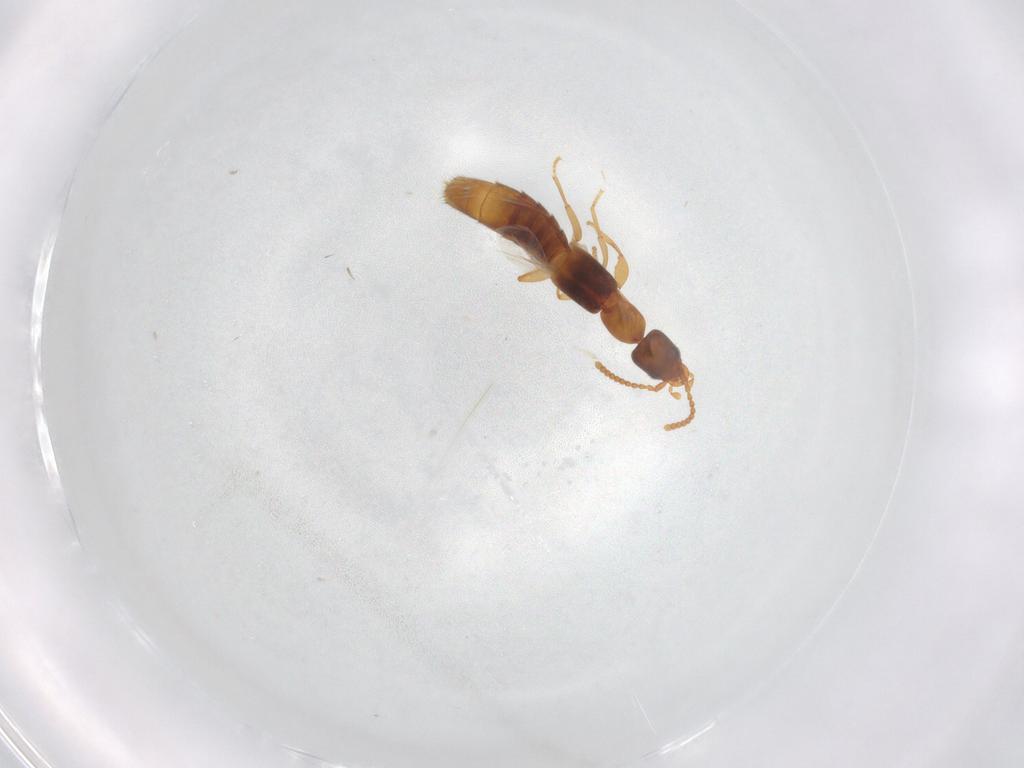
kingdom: Animalia
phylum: Arthropoda
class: Insecta
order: Coleoptera
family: Staphylinidae
